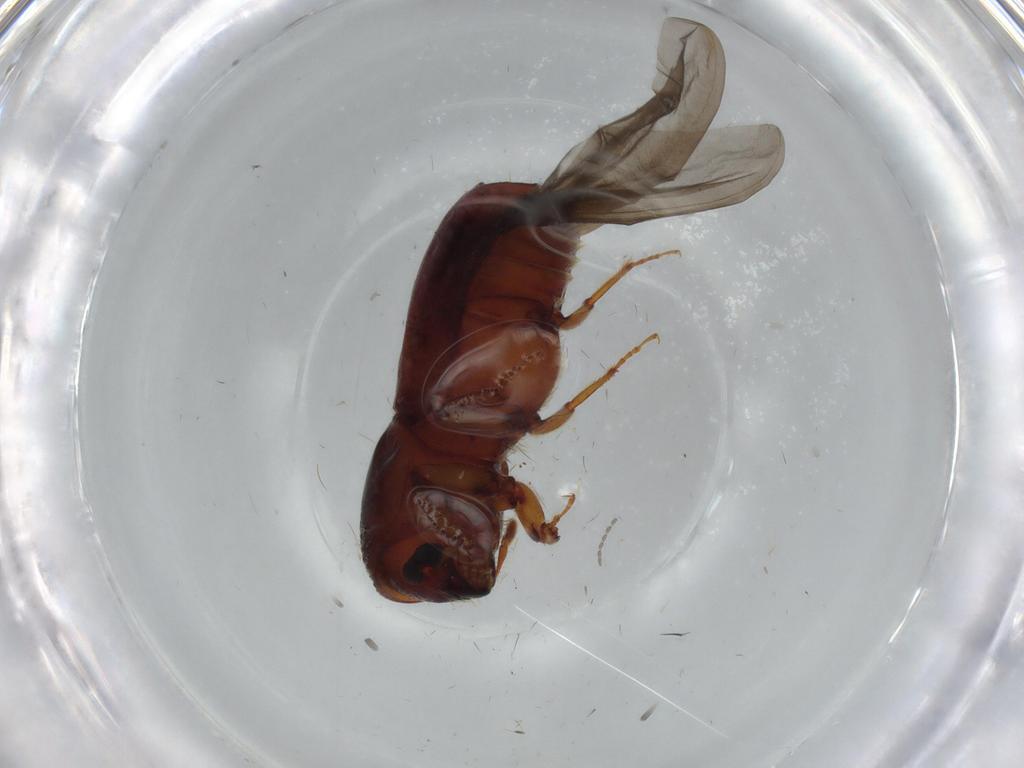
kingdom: Animalia
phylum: Arthropoda
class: Insecta
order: Coleoptera
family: Curculionidae
